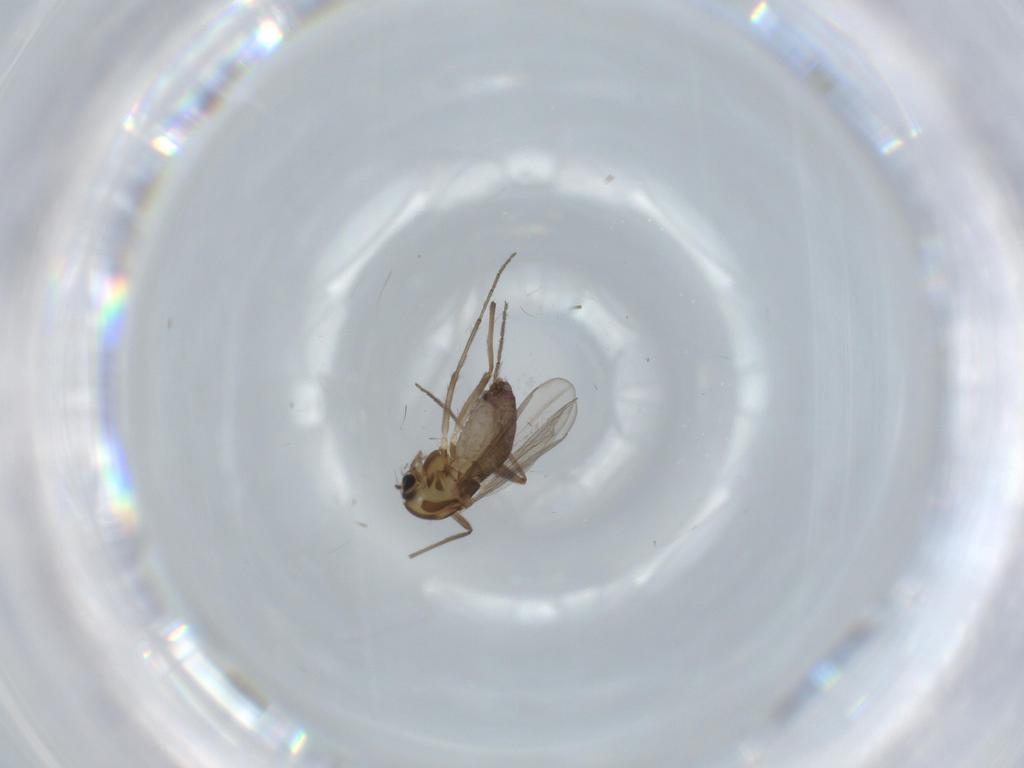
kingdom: Animalia
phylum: Arthropoda
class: Insecta
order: Diptera
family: Chironomidae
